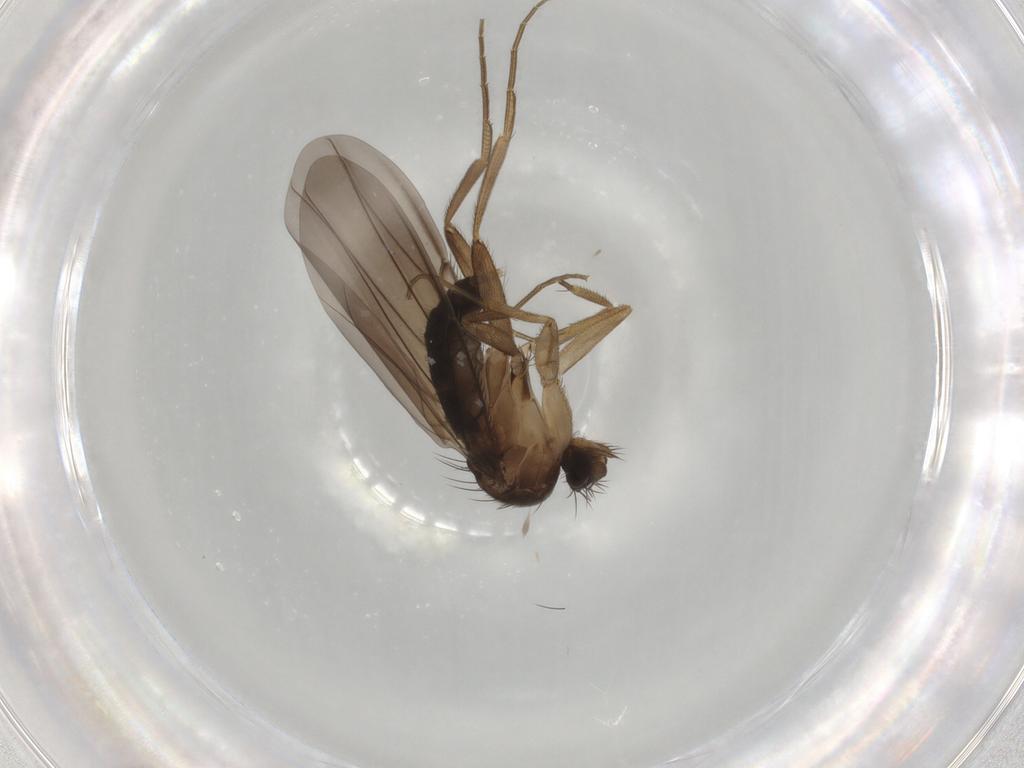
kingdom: Animalia
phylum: Arthropoda
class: Insecta
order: Diptera
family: Phoridae
